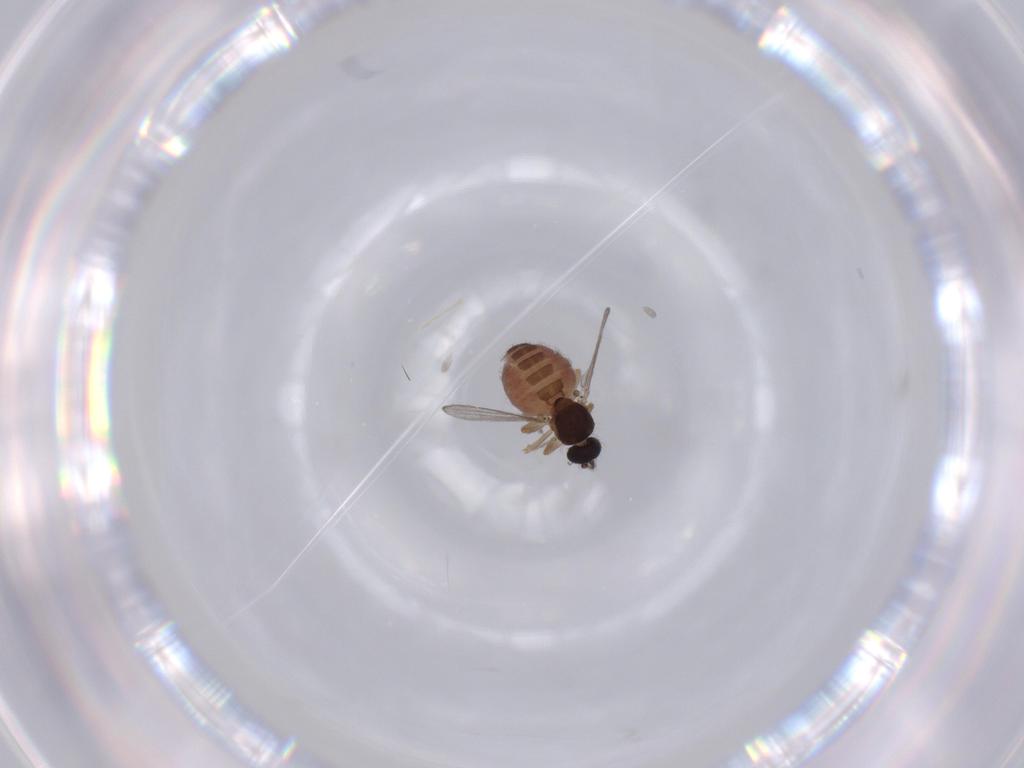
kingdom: Animalia
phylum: Arthropoda
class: Insecta
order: Diptera
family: Ceratopogonidae
